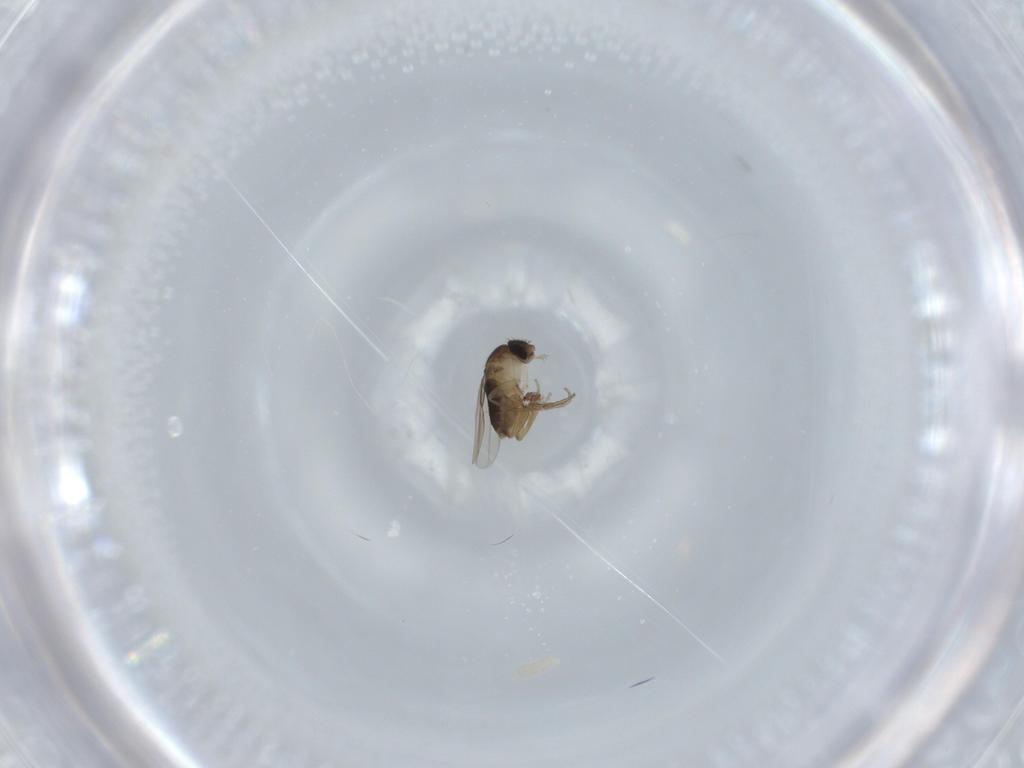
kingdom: Animalia
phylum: Arthropoda
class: Insecta
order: Diptera
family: Phoridae
